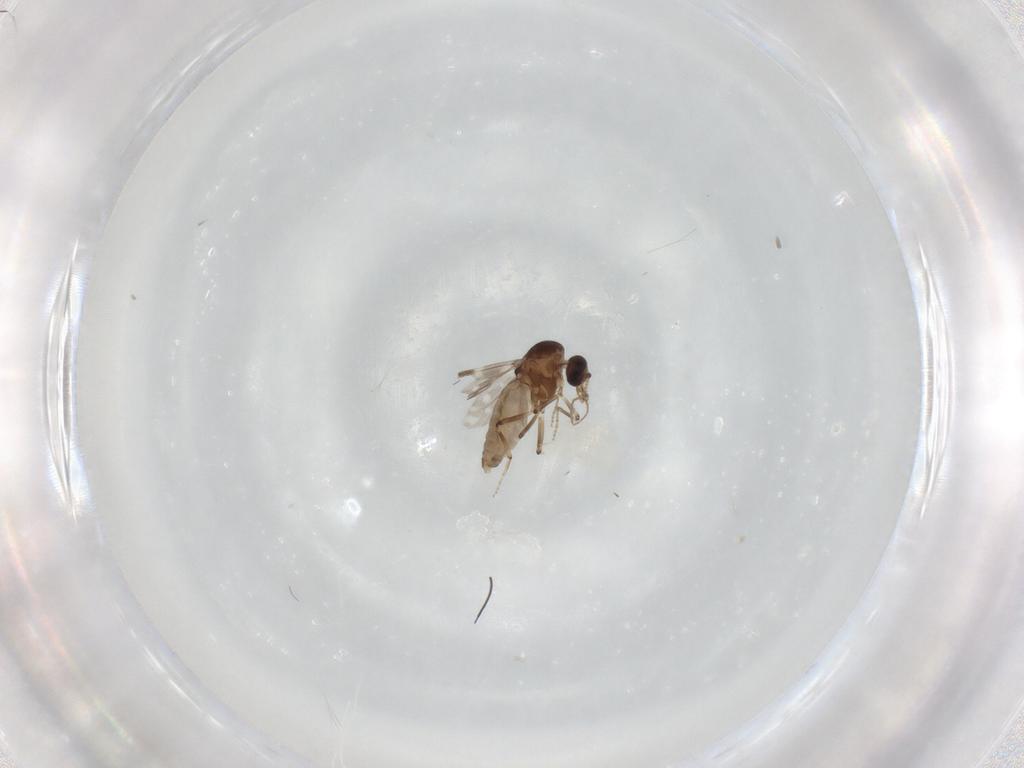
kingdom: Animalia
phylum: Arthropoda
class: Insecta
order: Diptera
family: Ceratopogonidae
